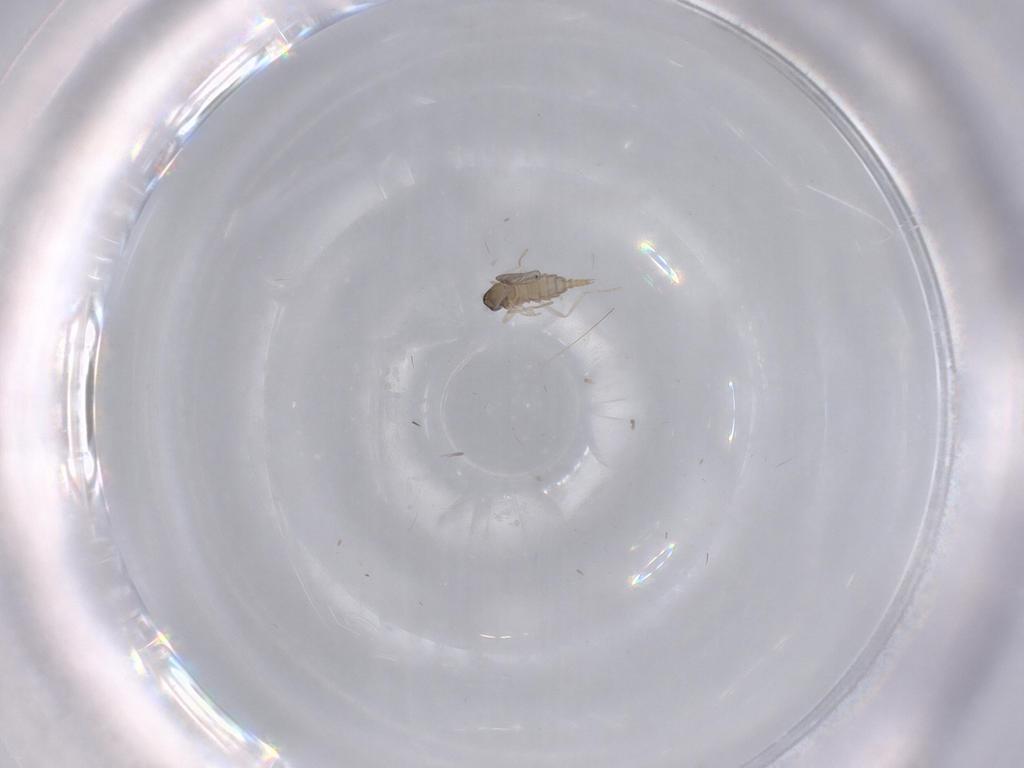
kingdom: Animalia
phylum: Arthropoda
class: Insecta
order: Diptera
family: Cecidomyiidae
